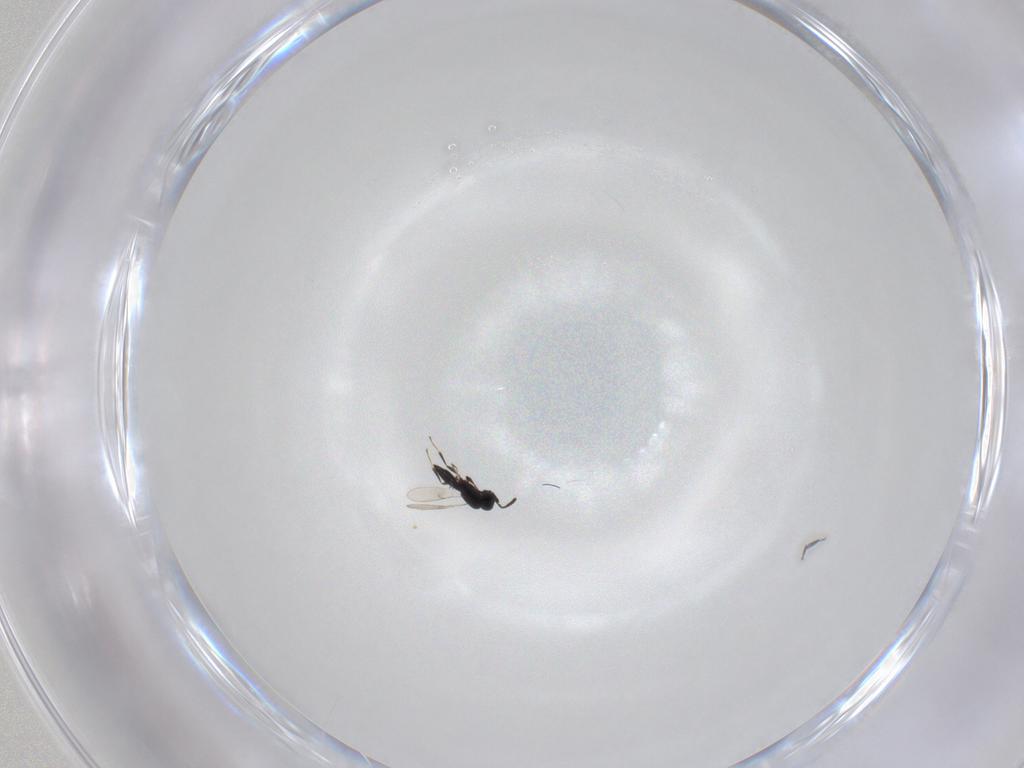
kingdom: Animalia
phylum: Arthropoda
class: Insecta
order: Hymenoptera
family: Scelionidae
